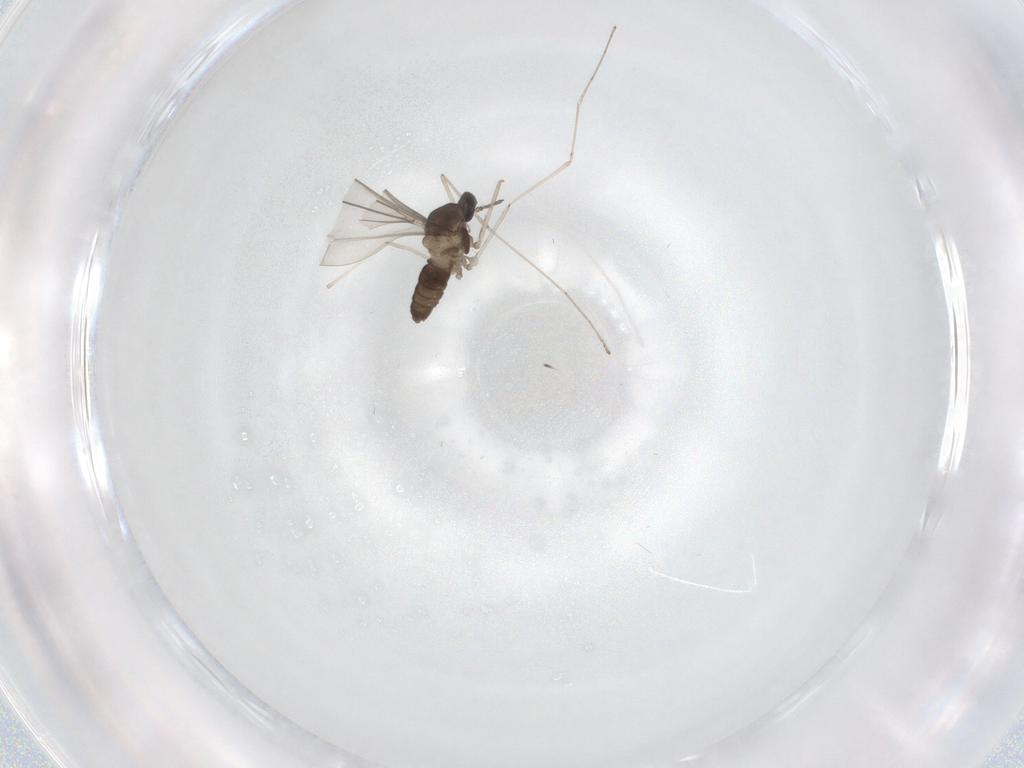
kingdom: Animalia
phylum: Arthropoda
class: Insecta
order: Diptera
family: Cecidomyiidae
